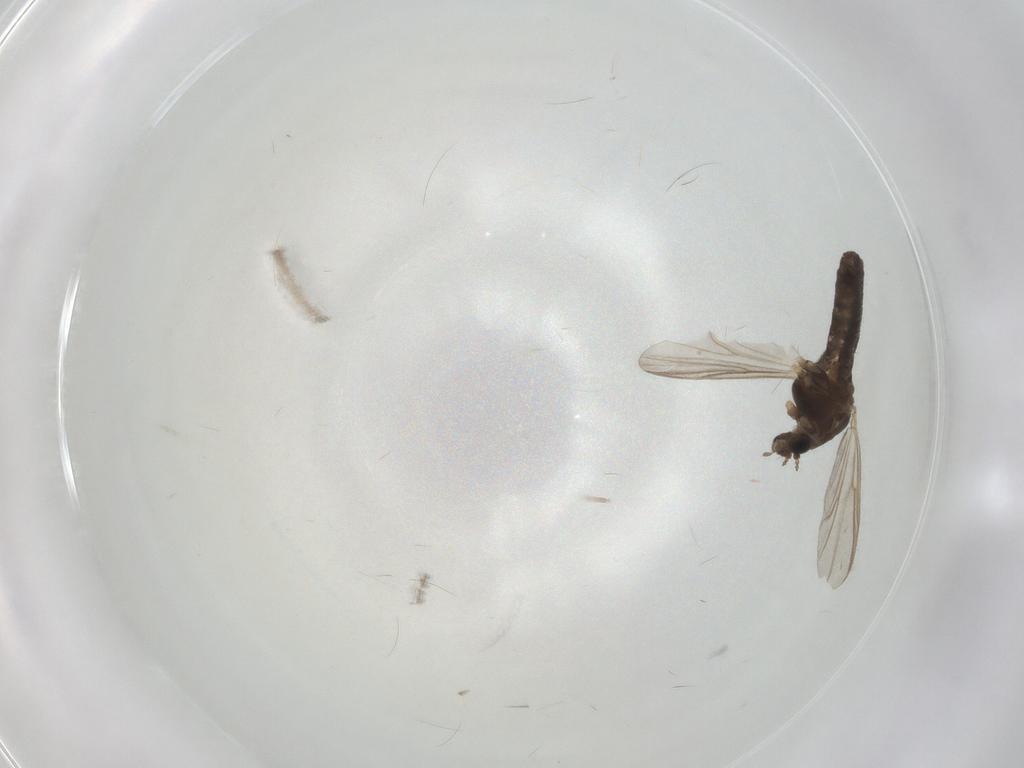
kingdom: Animalia
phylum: Arthropoda
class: Insecta
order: Diptera
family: Chironomidae
